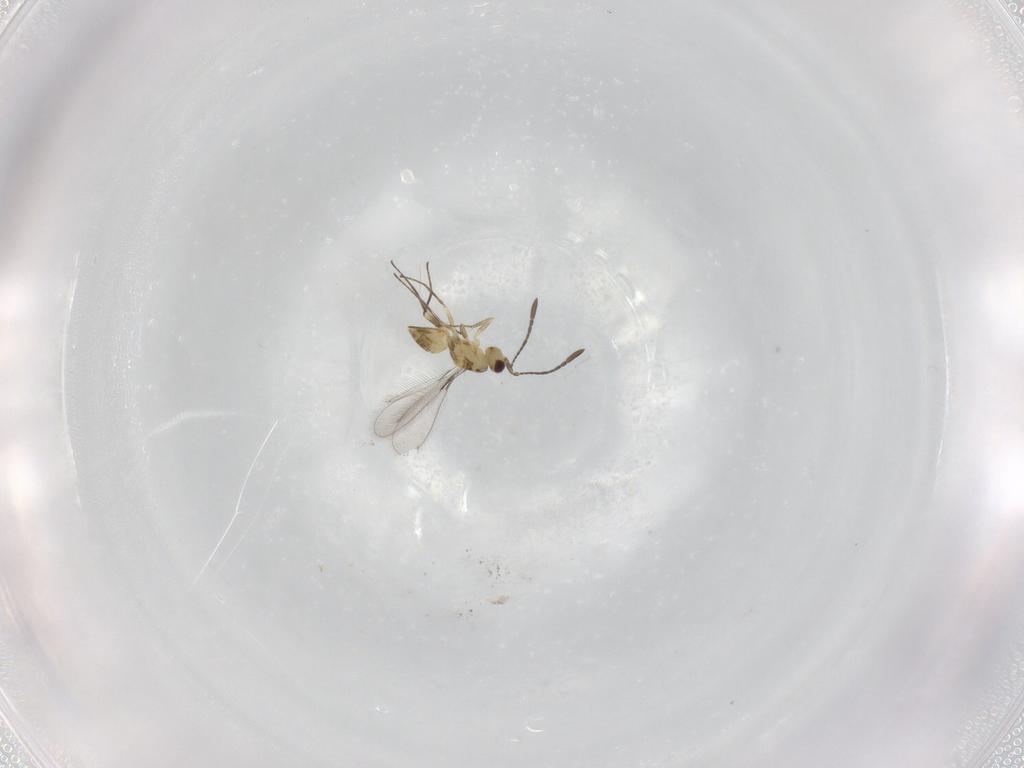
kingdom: Animalia
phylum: Arthropoda
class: Insecta
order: Hymenoptera
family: Mymaridae
